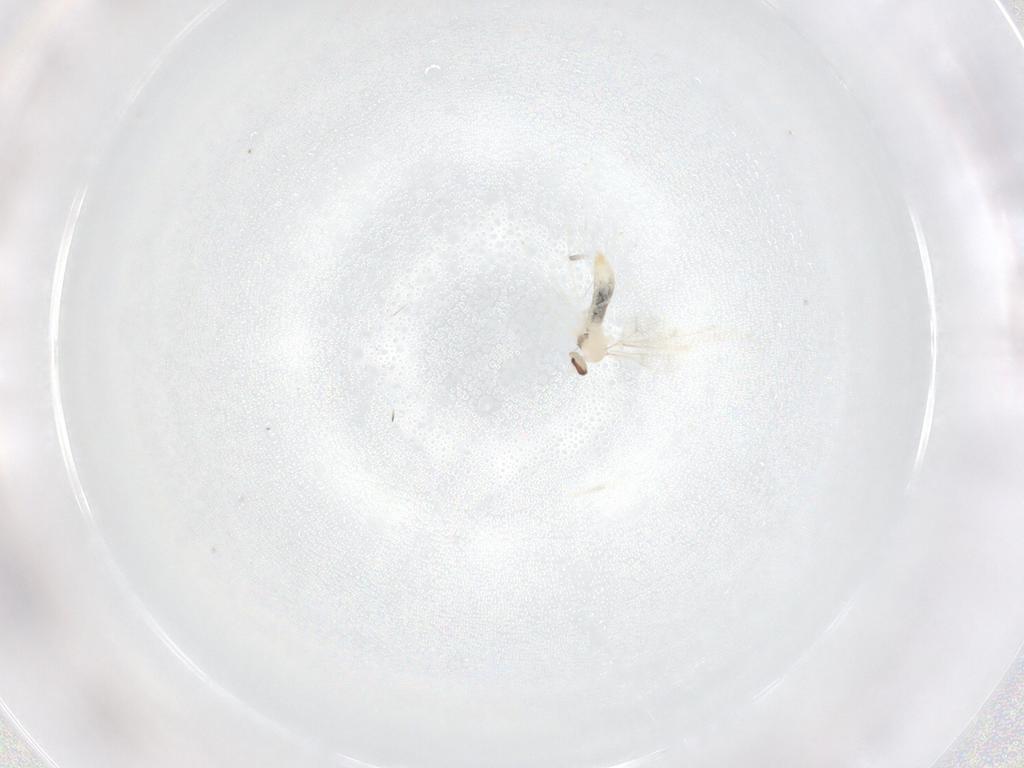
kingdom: Animalia
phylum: Arthropoda
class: Insecta
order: Diptera
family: Cecidomyiidae
